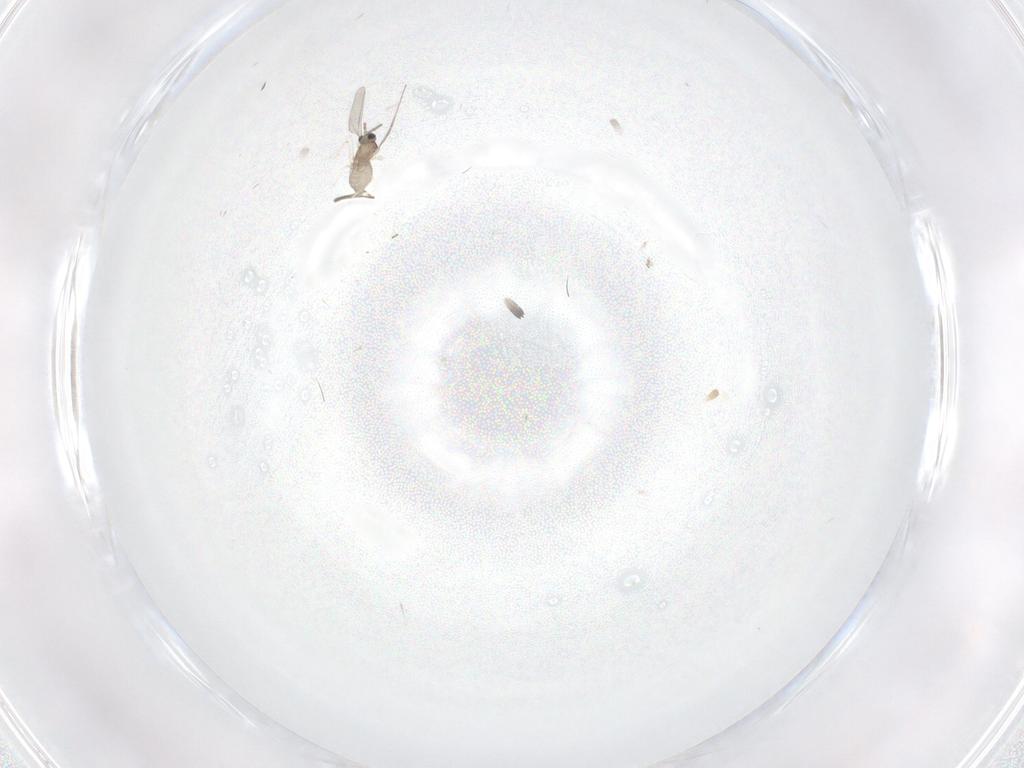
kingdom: Animalia
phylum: Arthropoda
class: Insecta
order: Diptera
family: Cecidomyiidae
